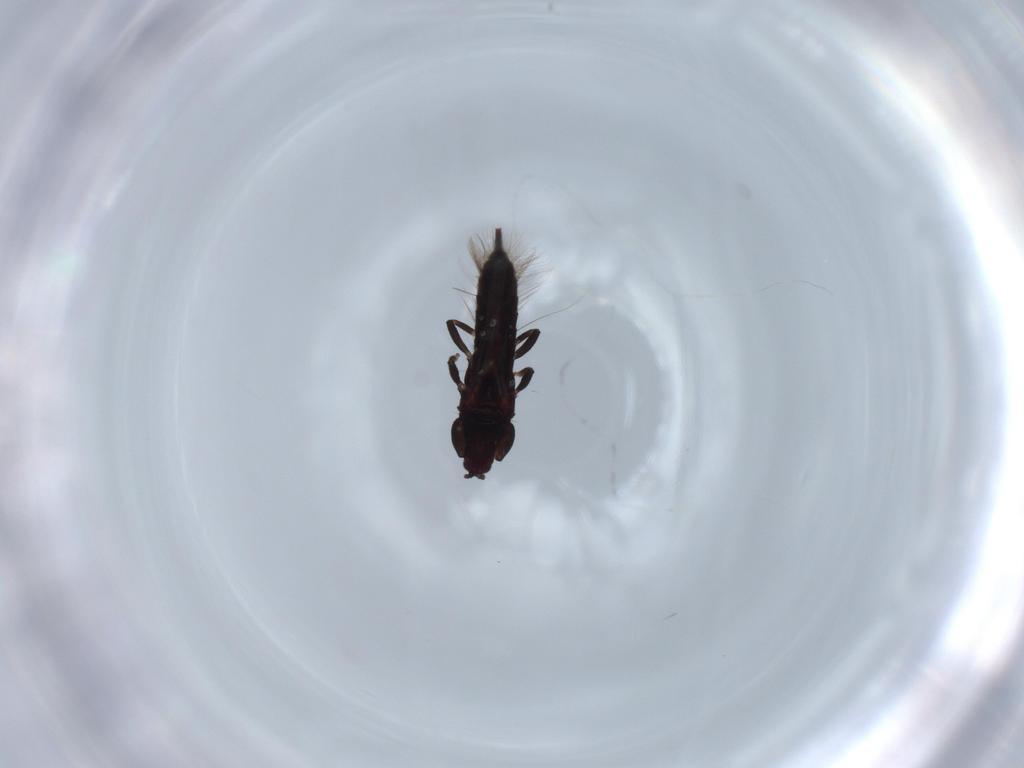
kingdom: Animalia
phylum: Arthropoda
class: Insecta
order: Thysanoptera
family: Phlaeothripidae
